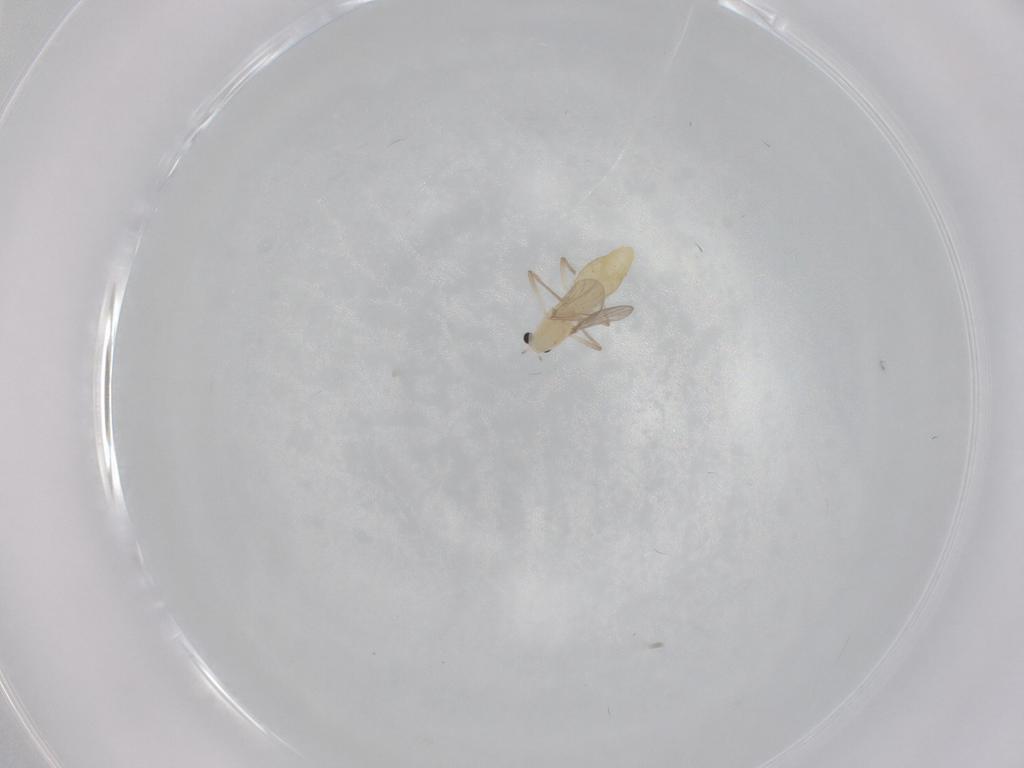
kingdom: Animalia
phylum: Arthropoda
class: Insecta
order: Diptera
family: Chironomidae
